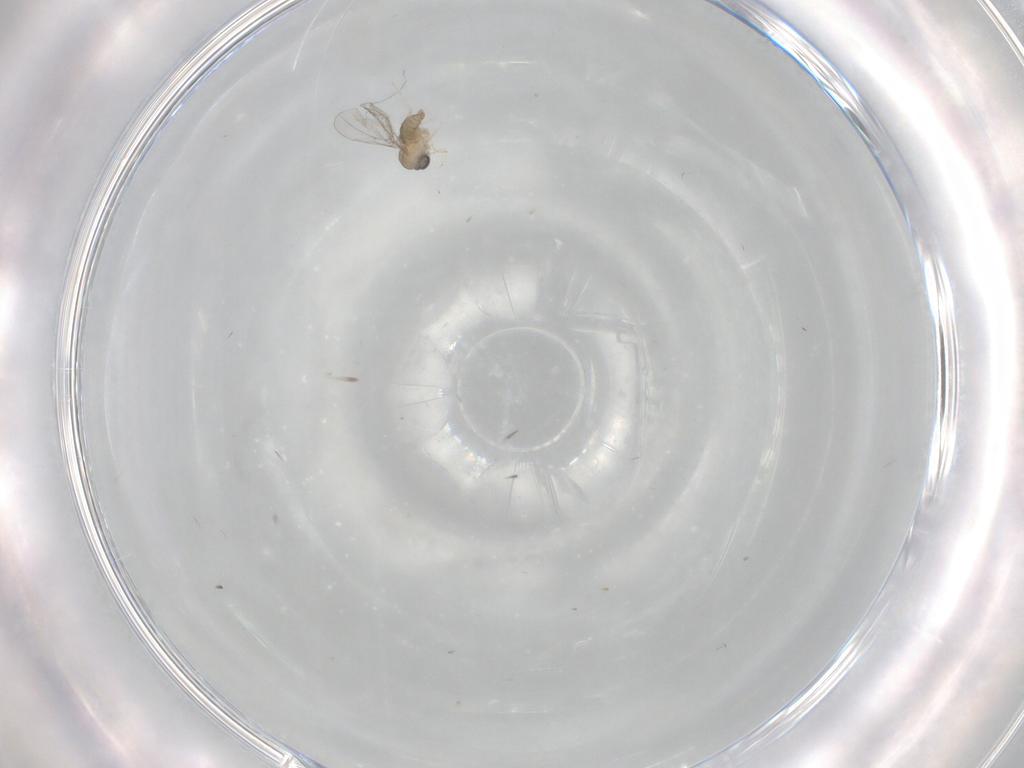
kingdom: Animalia
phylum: Arthropoda
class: Insecta
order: Diptera
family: Cecidomyiidae
